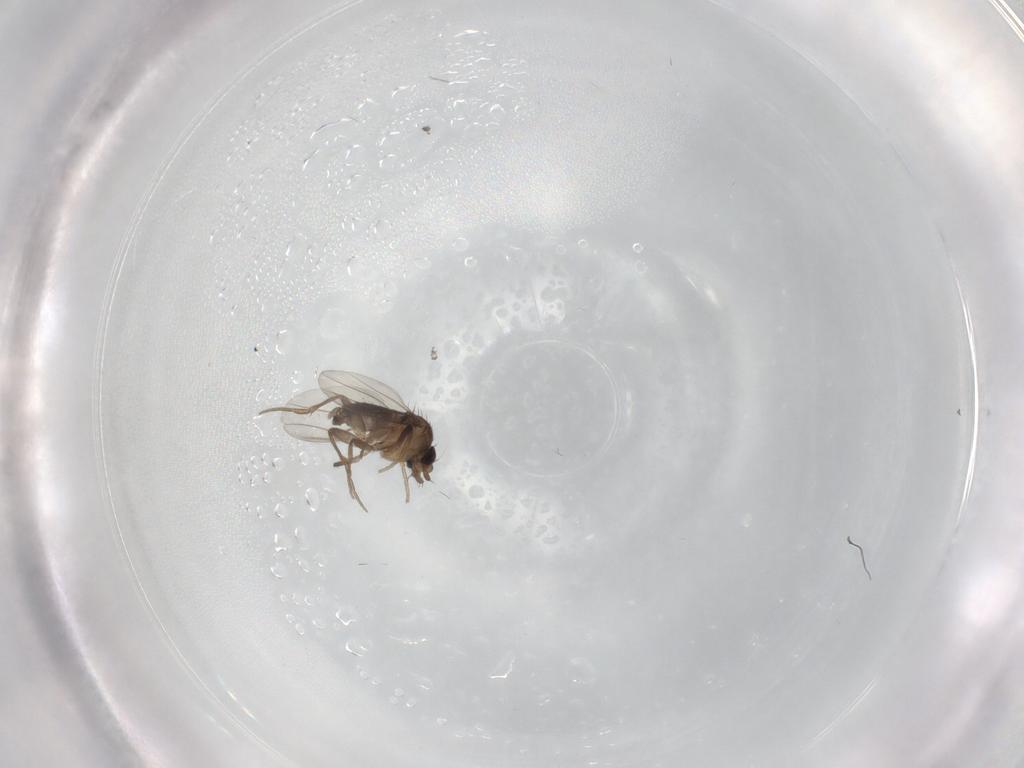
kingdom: Animalia
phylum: Arthropoda
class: Insecta
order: Diptera
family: Phoridae
